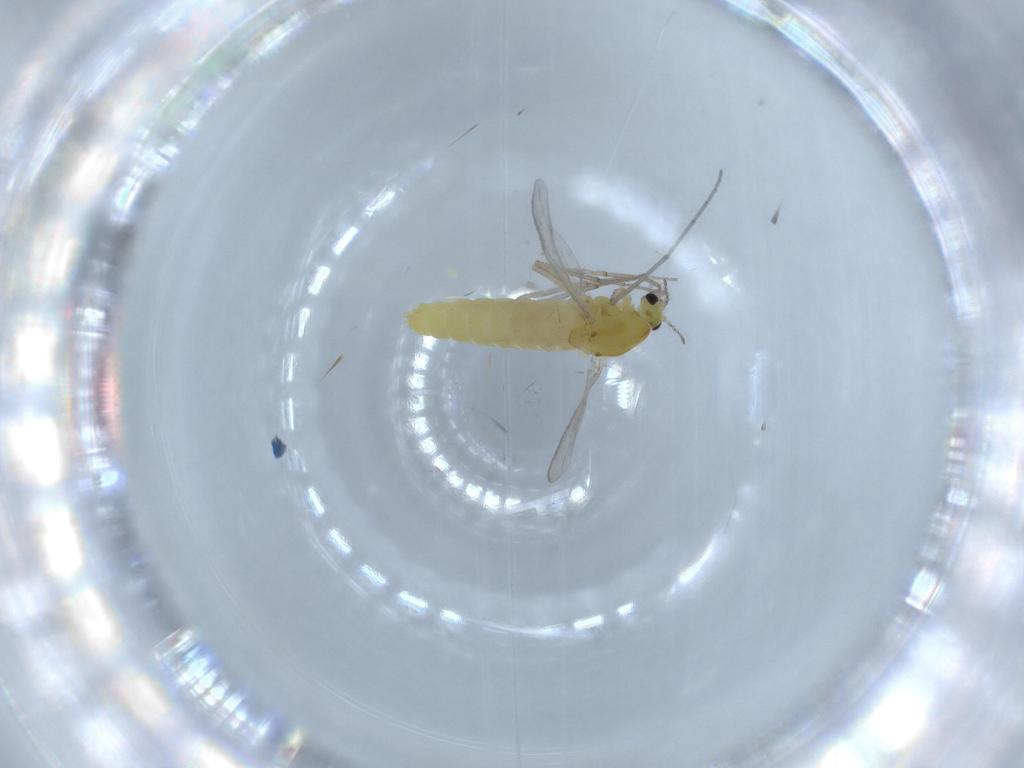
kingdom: Animalia
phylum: Arthropoda
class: Insecta
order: Diptera
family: Chironomidae
